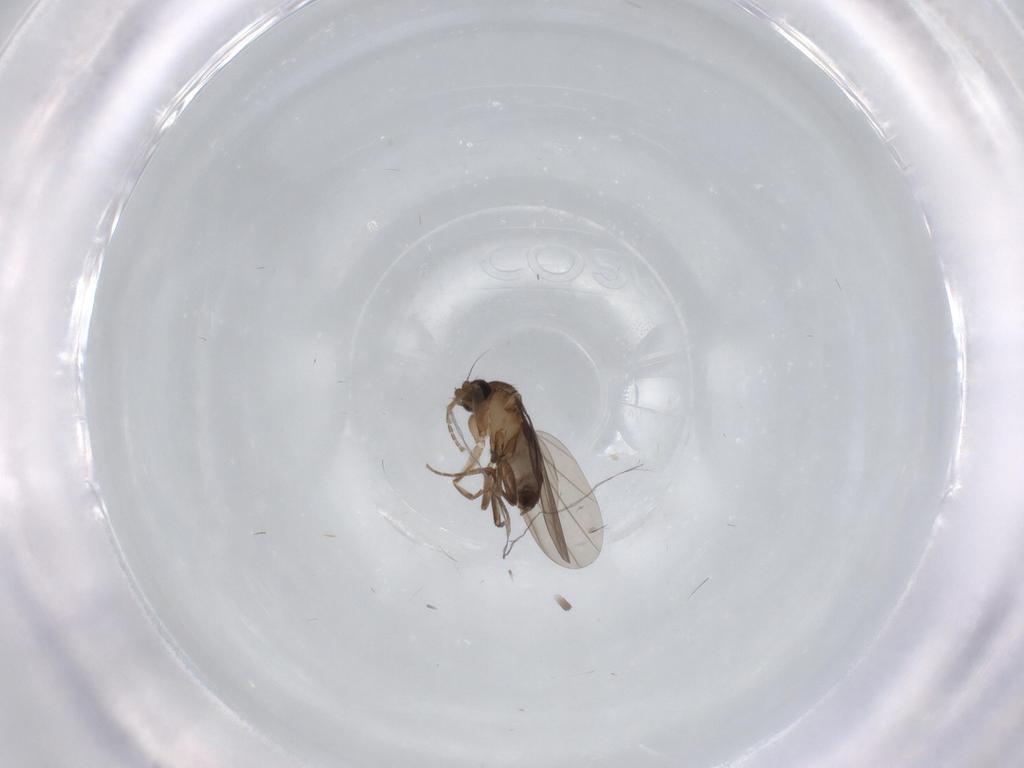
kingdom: Animalia
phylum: Arthropoda
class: Insecta
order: Diptera
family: Phoridae
